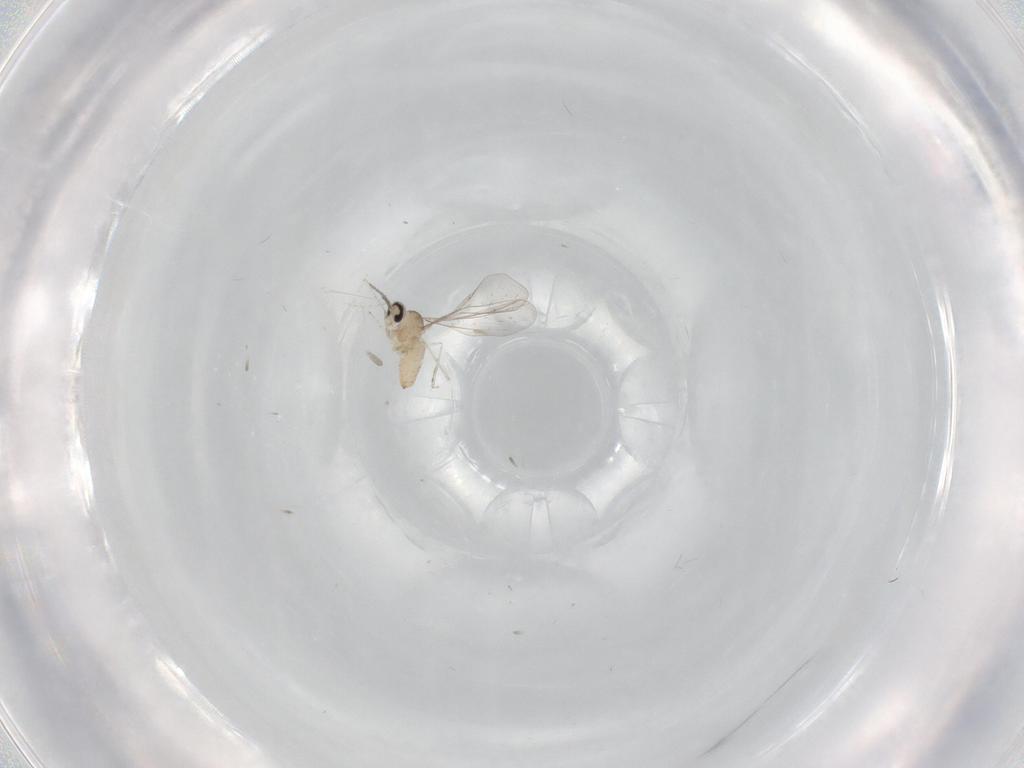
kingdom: Animalia
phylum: Arthropoda
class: Insecta
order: Diptera
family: Cecidomyiidae
